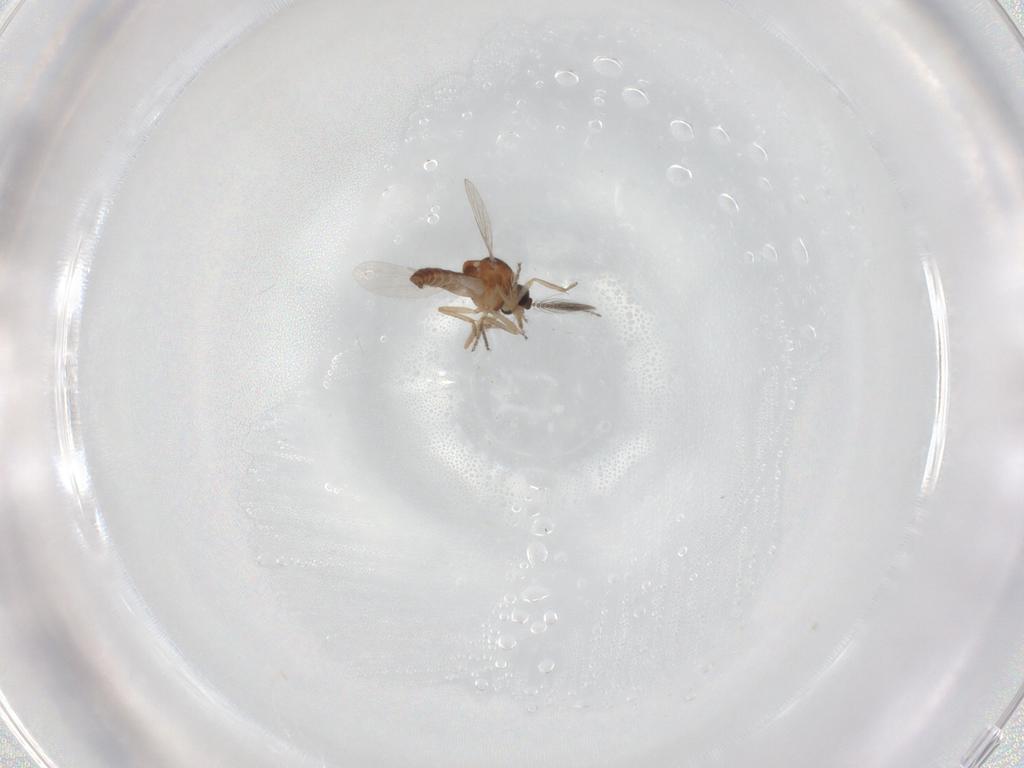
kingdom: Animalia
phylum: Arthropoda
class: Insecta
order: Diptera
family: Ceratopogonidae
